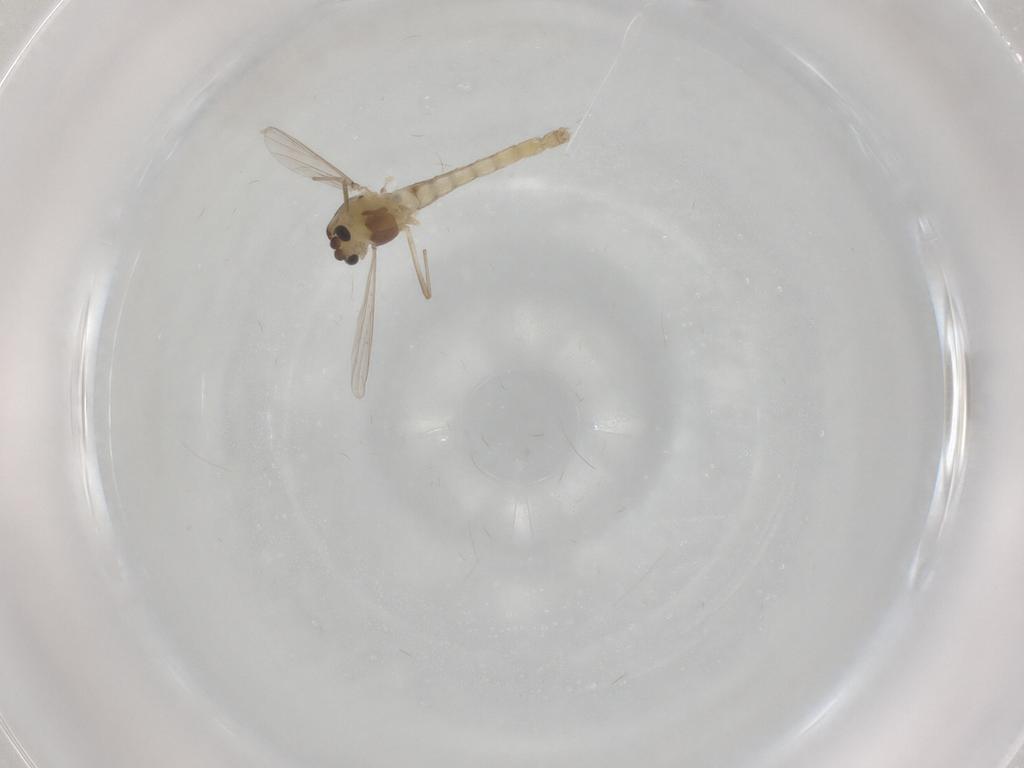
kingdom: Animalia
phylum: Arthropoda
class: Insecta
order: Diptera
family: Chironomidae
